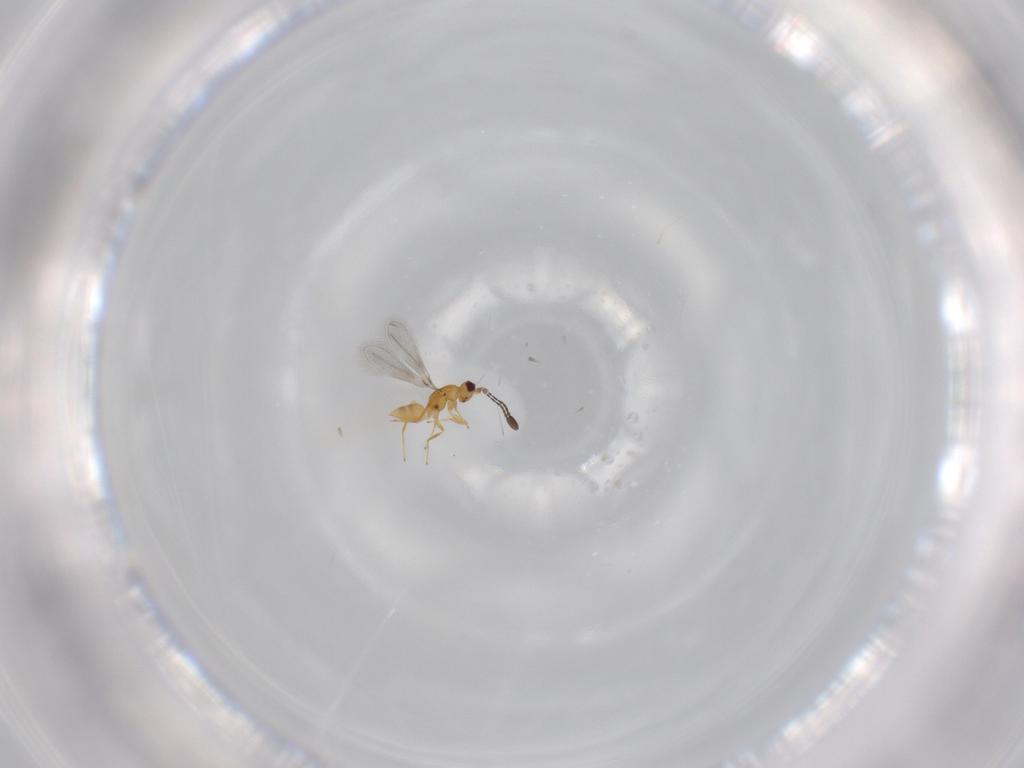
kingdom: Animalia
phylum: Arthropoda
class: Insecta
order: Hymenoptera
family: Mymaridae
